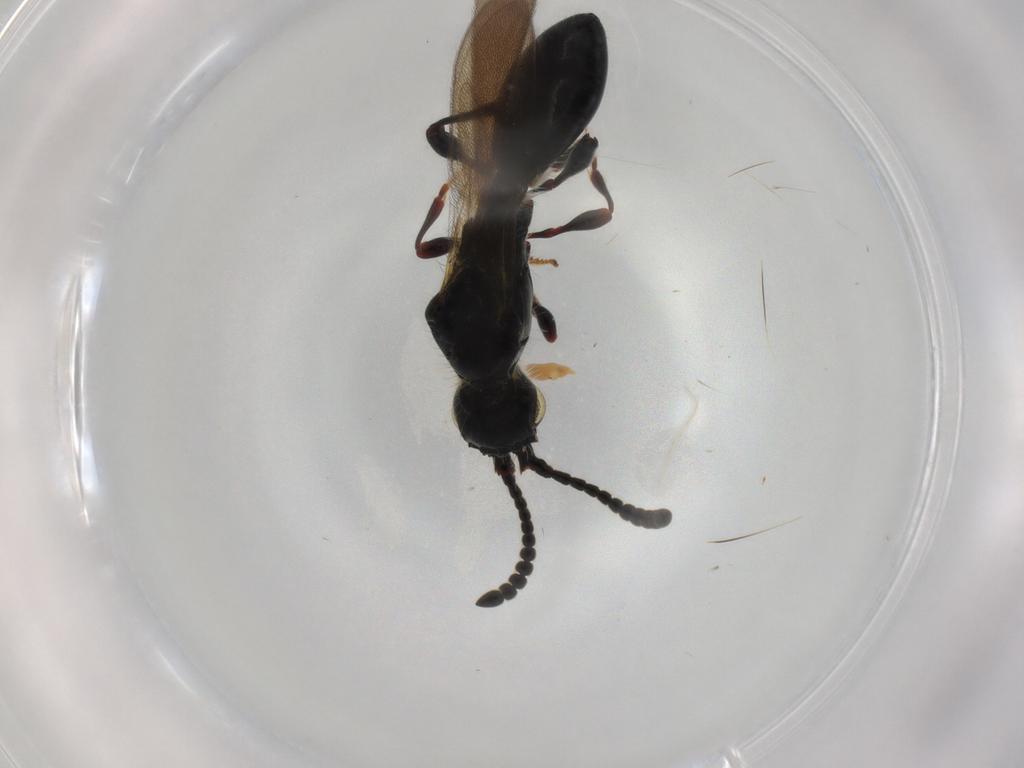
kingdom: Animalia
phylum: Arthropoda
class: Insecta
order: Hymenoptera
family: Diapriidae
